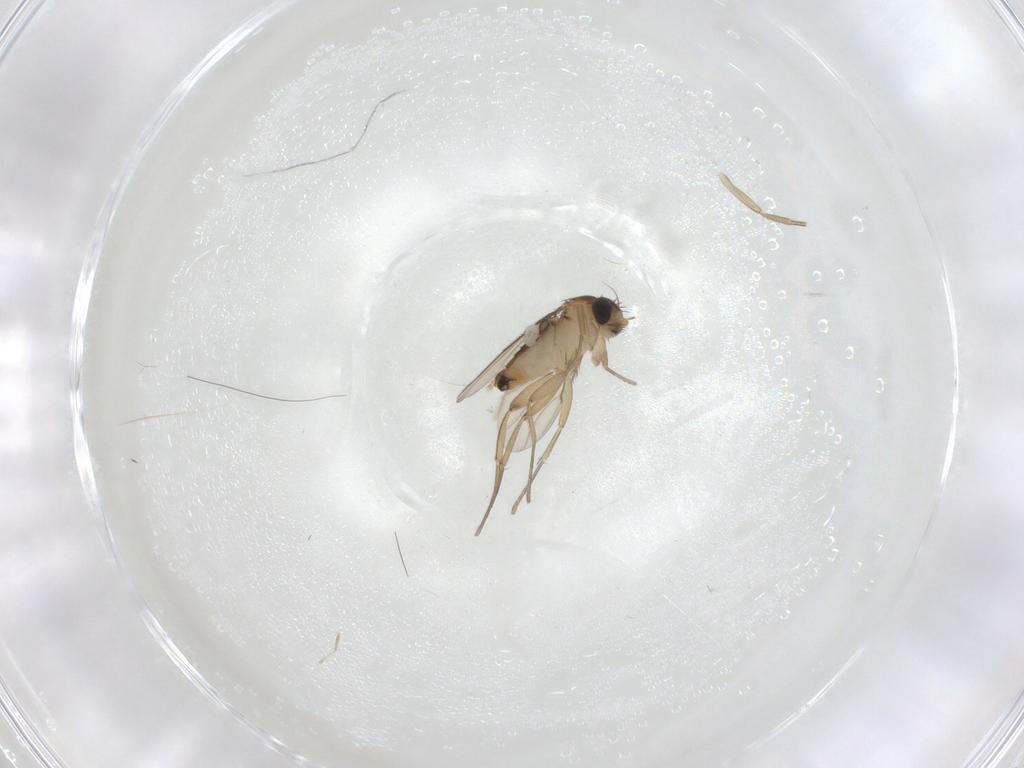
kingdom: Animalia
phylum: Arthropoda
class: Insecta
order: Diptera
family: Phoridae
